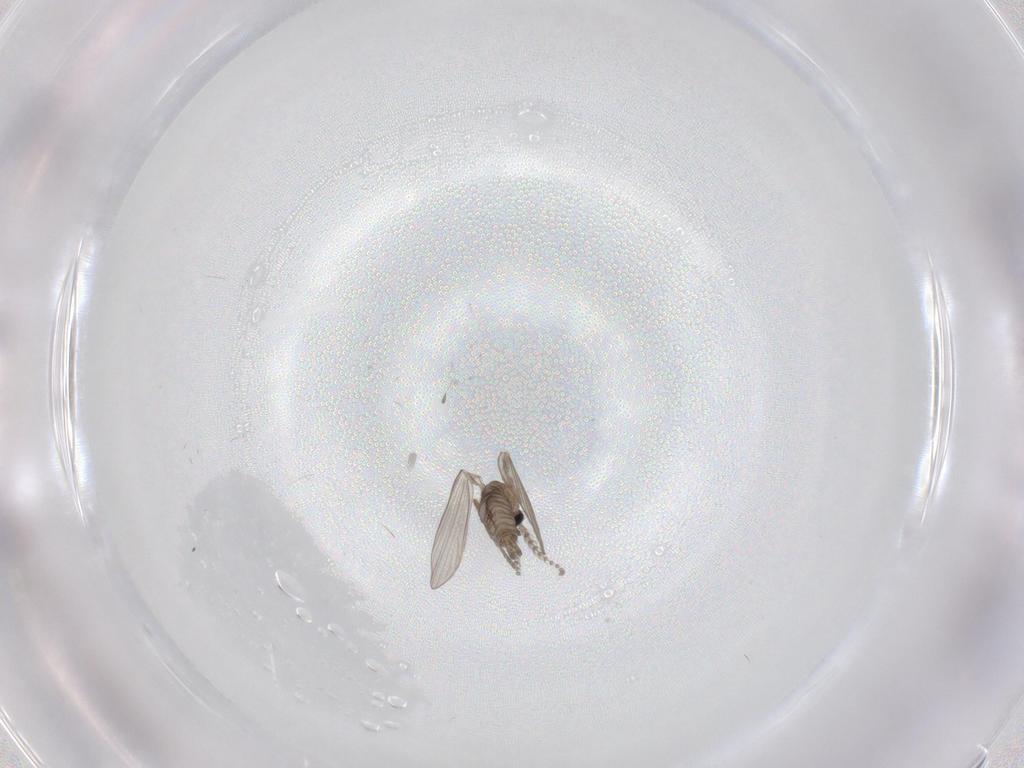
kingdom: Animalia
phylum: Arthropoda
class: Insecta
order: Diptera
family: Psychodidae
